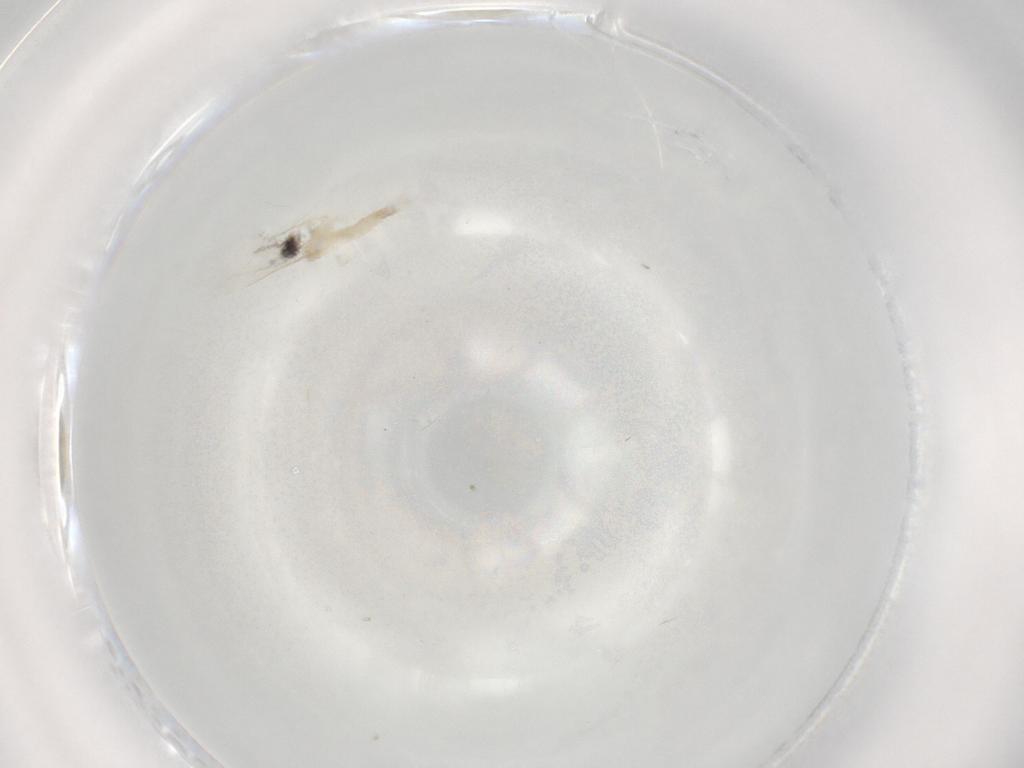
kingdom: Animalia
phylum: Arthropoda
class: Insecta
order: Diptera
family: Cecidomyiidae
